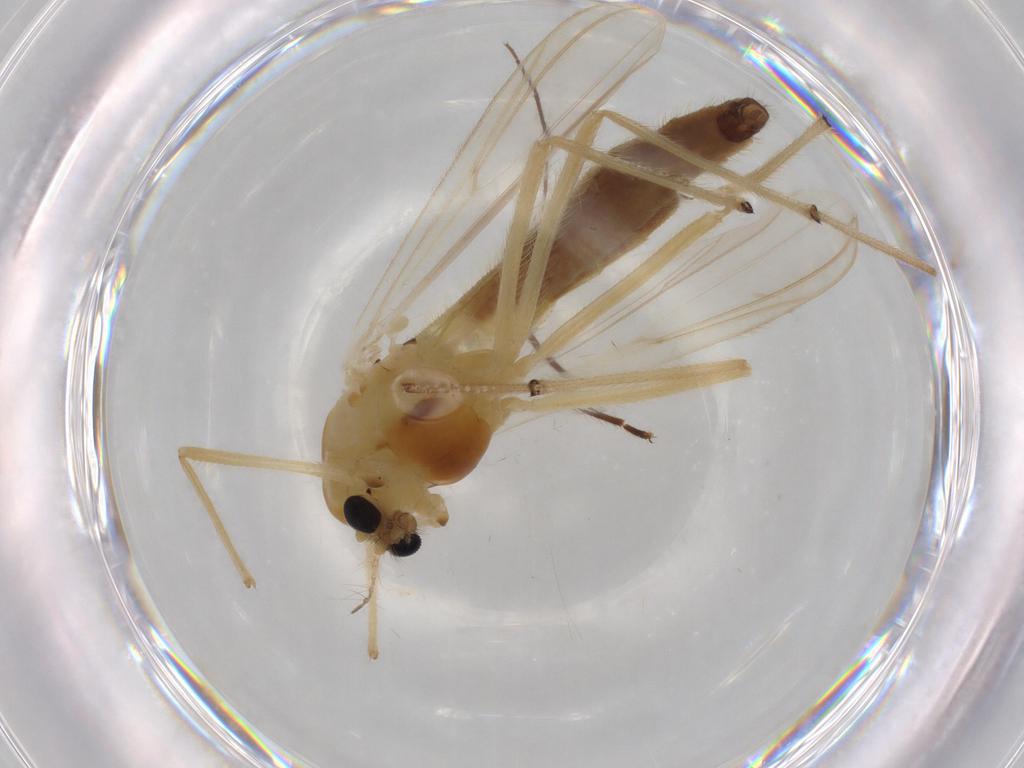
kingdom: Animalia
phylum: Arthropoda
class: Insecta
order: Diptera
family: Chironomidae
